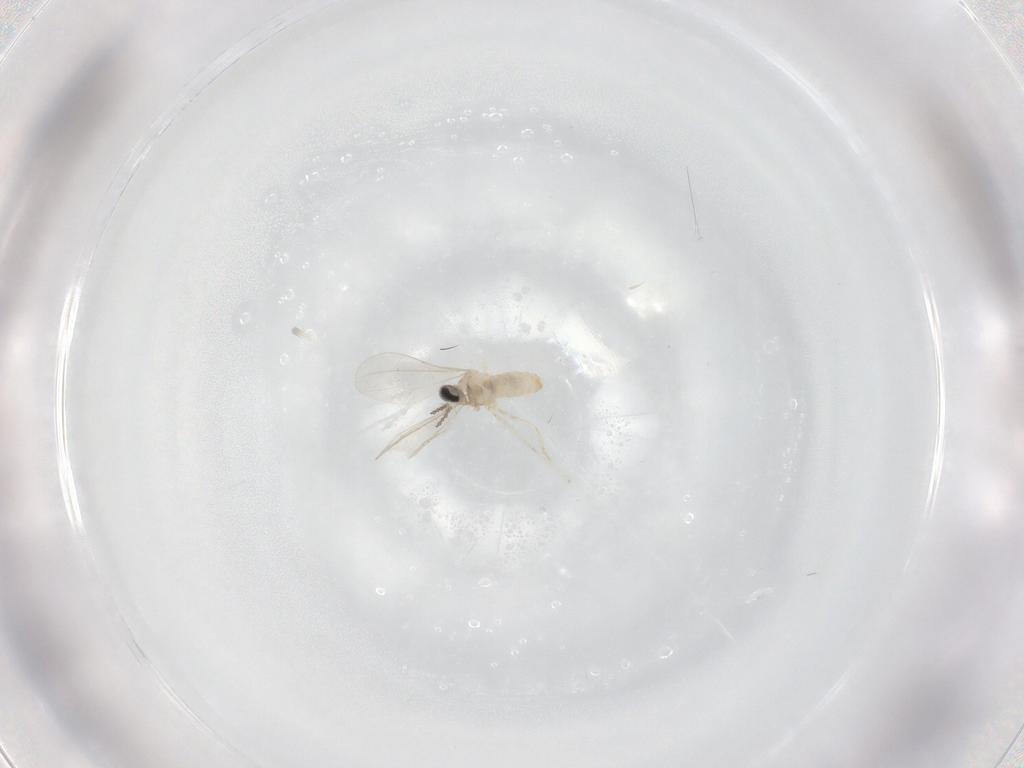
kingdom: Animalia
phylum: Arthropoda
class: Insecta
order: Diptera
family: Cecidomyiidae
